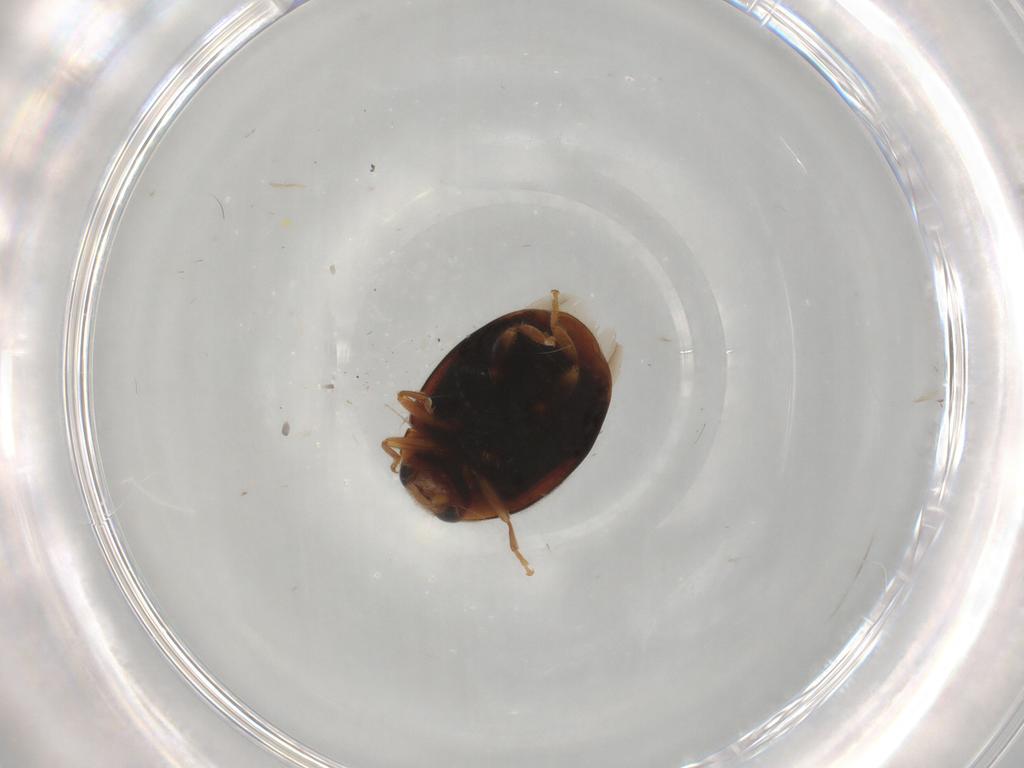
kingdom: Animalia
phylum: Arthropoda
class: Insecta
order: Coleoptera
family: Coccinellidae
